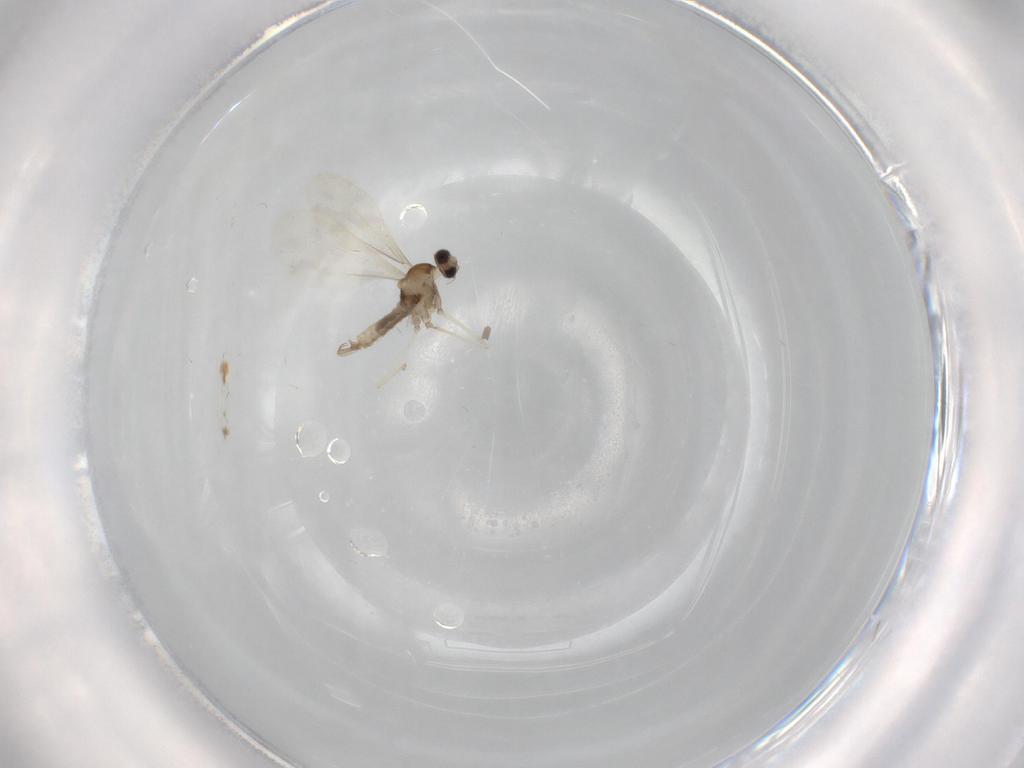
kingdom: Animalia
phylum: Arthropoda
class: Insecta
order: Diptera
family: Cecidomyiidae
